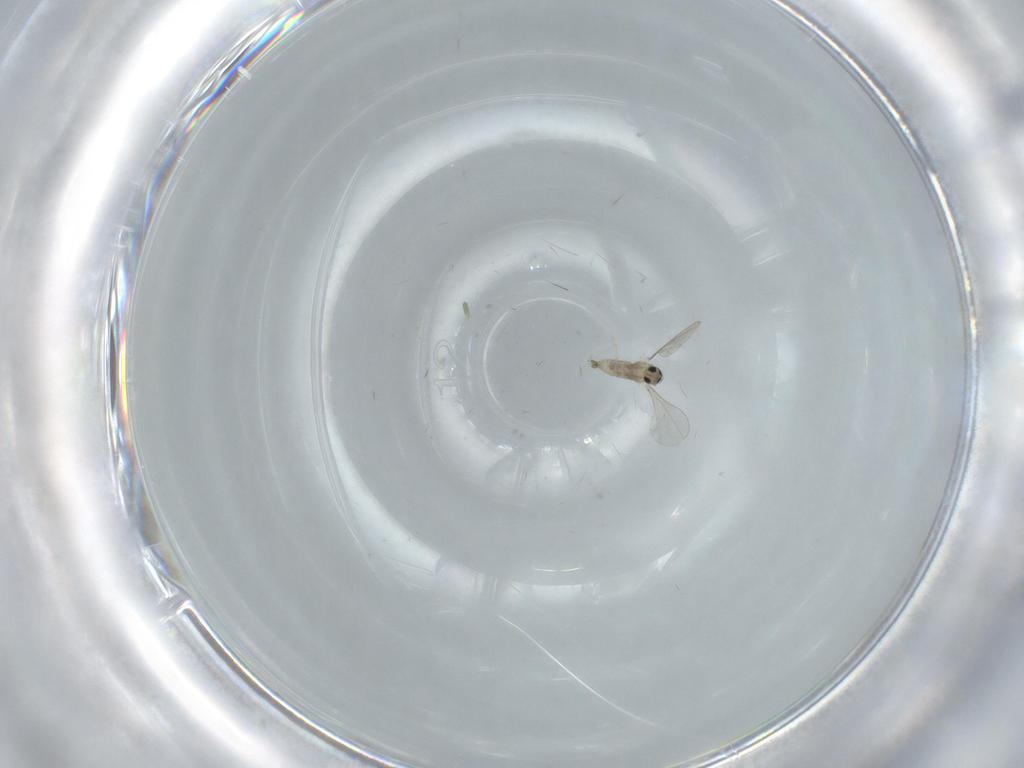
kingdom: Animalia
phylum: Arthropoda
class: Insecta
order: Diptera
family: Cecidomyiidae
